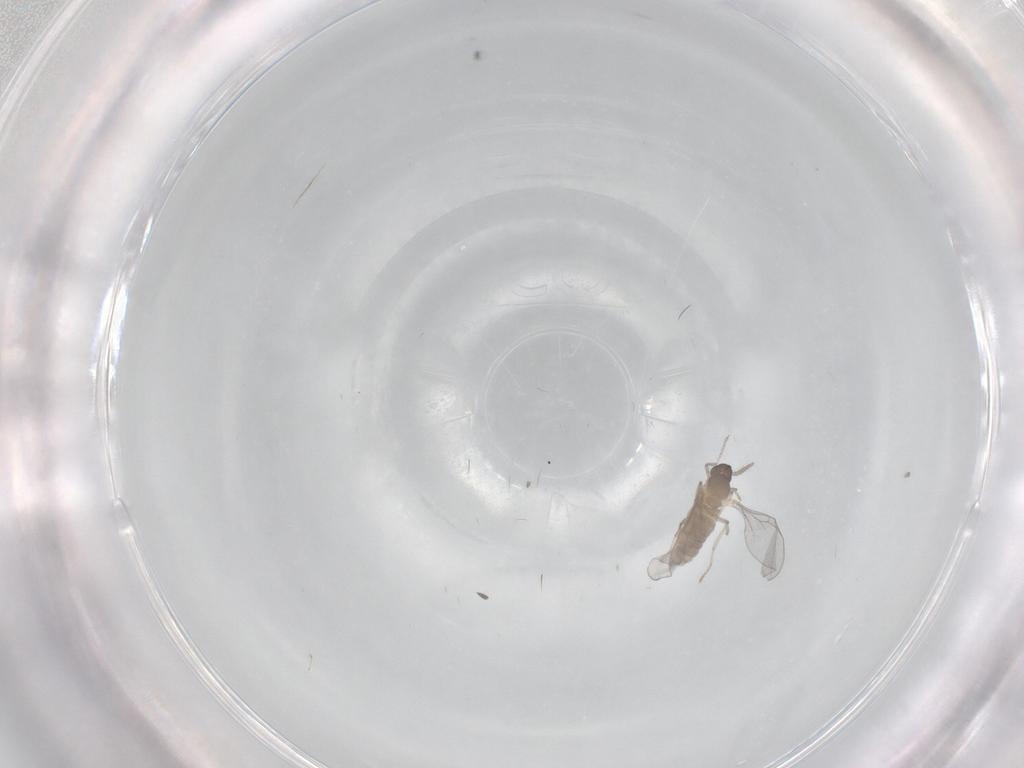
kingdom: Animalia
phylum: Arthropoda
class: Insecta
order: Diptera
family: Cecidomyiidae
